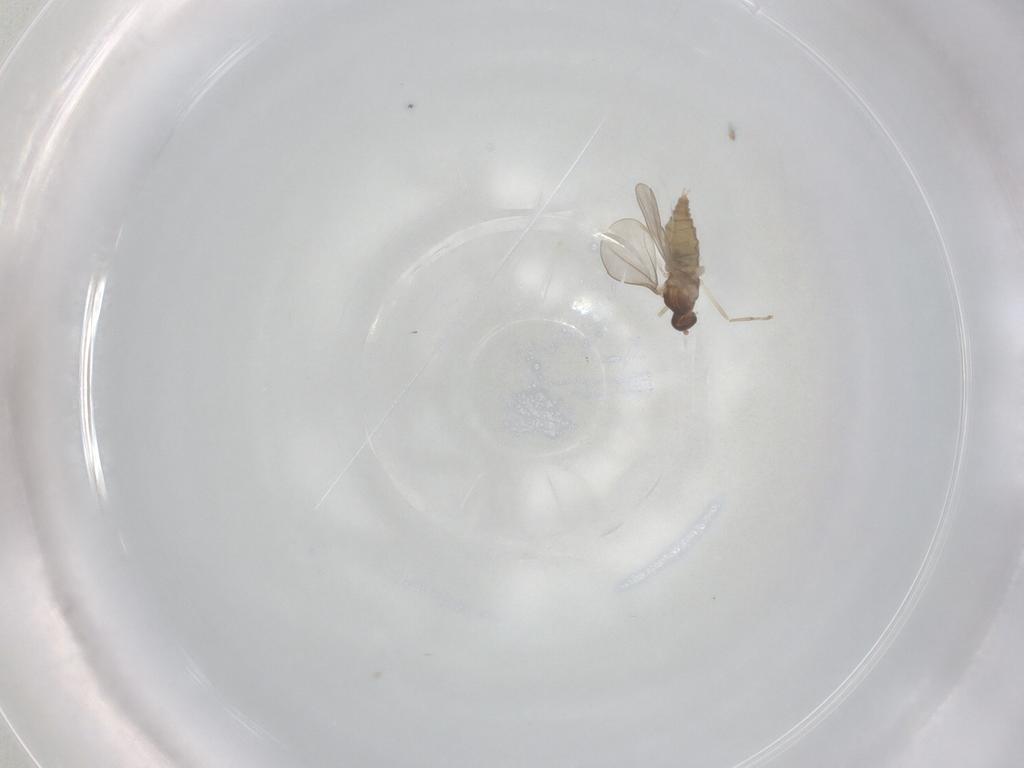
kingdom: Animalia
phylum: Arthropoda
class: Insecta
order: Diptera
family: Cecidomyiidae
